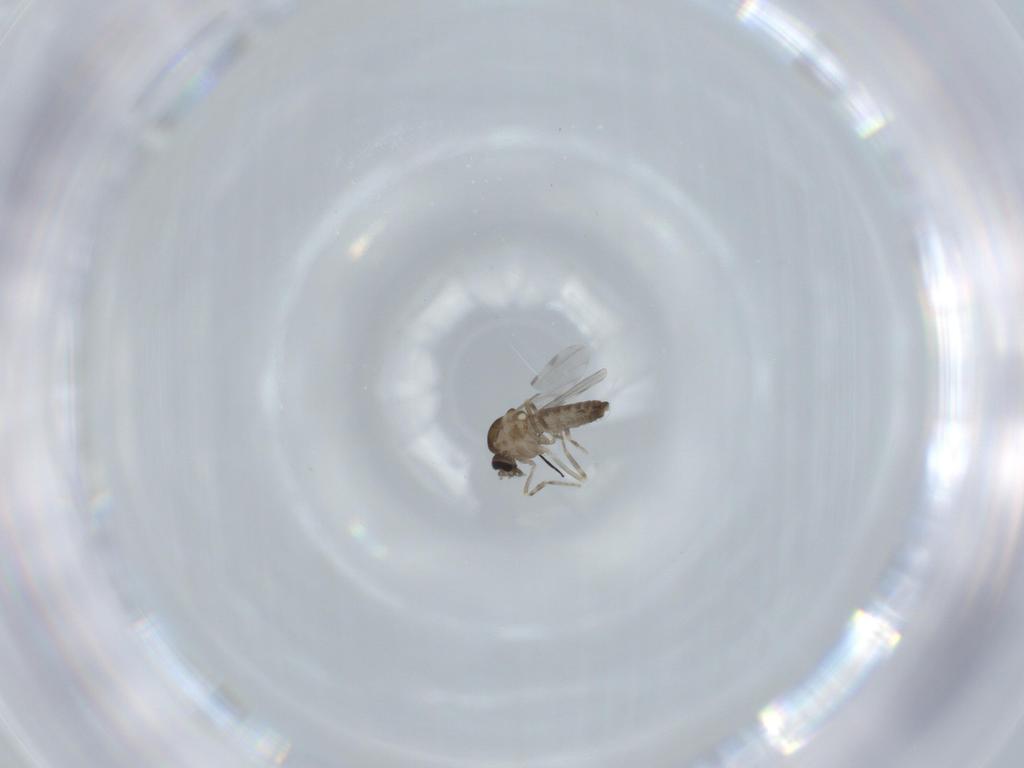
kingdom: Animalia
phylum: Arthropoda
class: Insecta
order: Diptera
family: Ceratopogonidae
